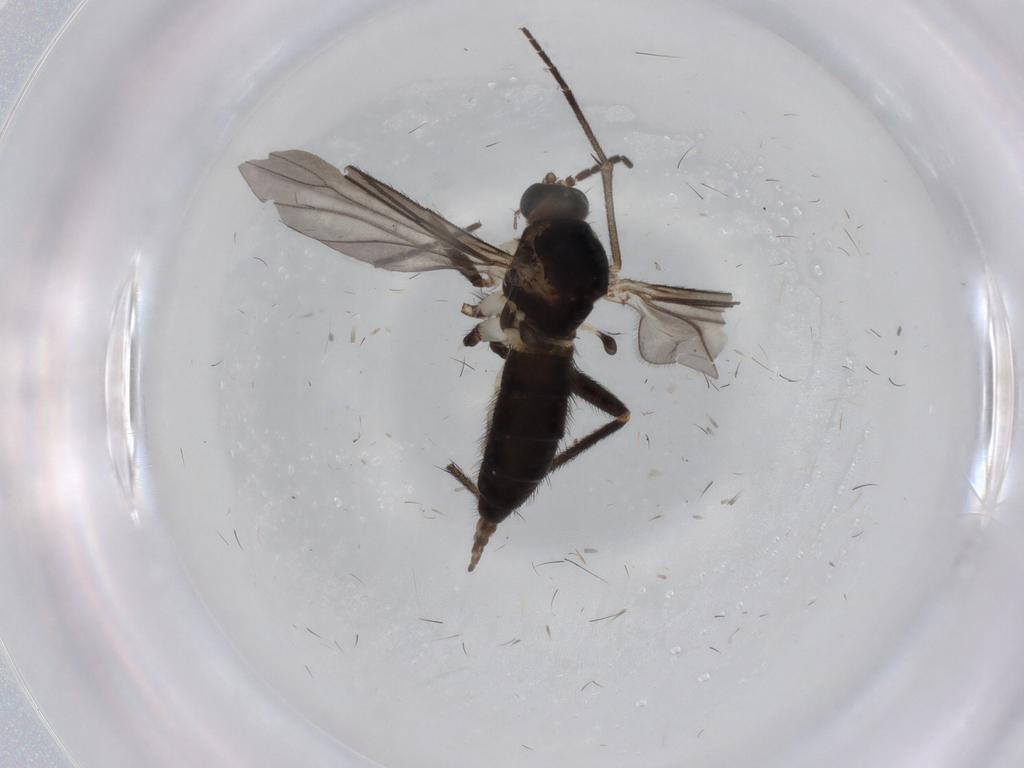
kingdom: Animalia
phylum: Arthropoda
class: Insecta
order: Diptera
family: Sciaridae
